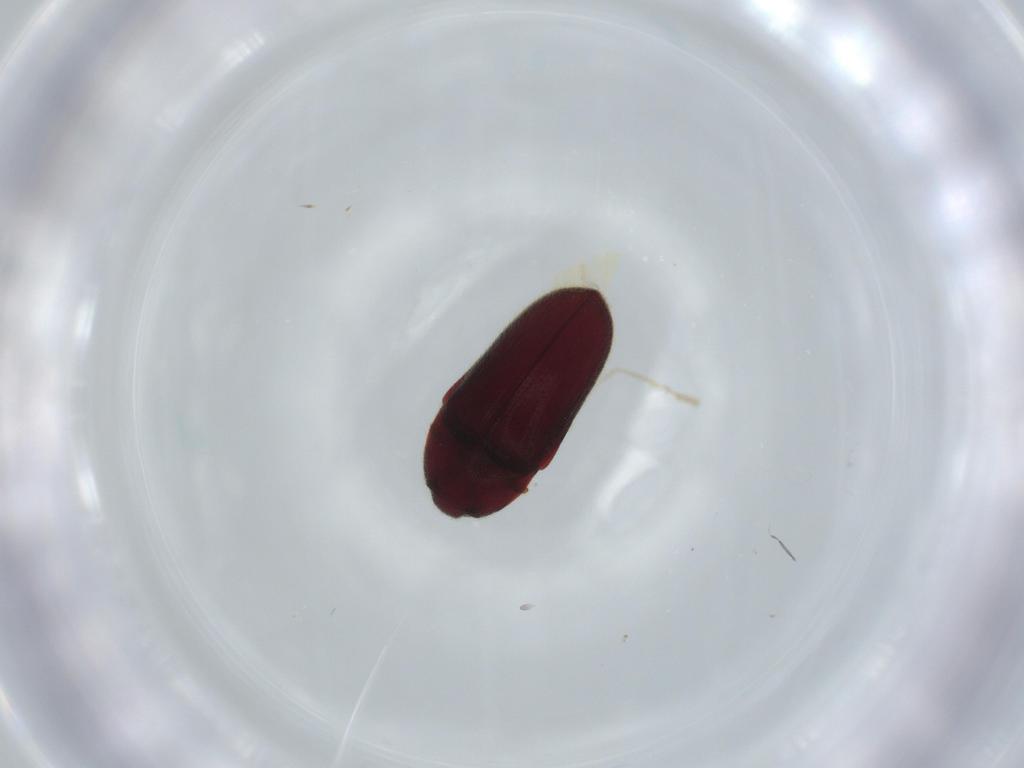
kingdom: Animalia
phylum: Arthropoda
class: Insecta
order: Coleoptera
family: Throscidae
